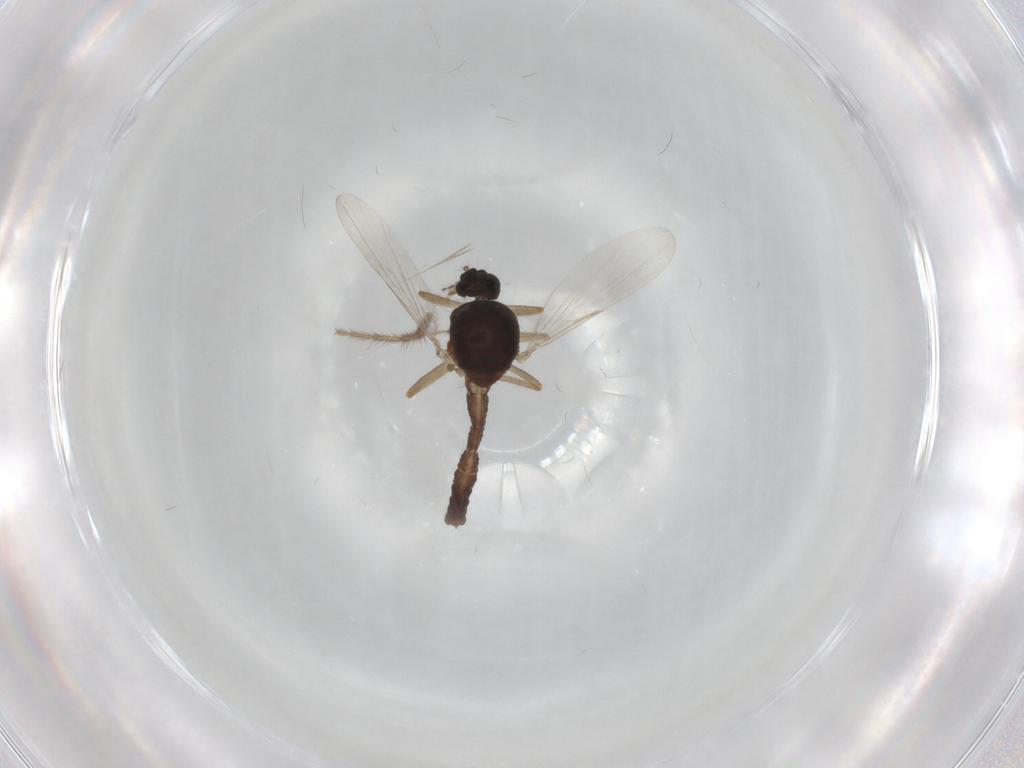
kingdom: Animalia
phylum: Arthropoda
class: Insecta
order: Diptera
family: Ceratopogonidae
